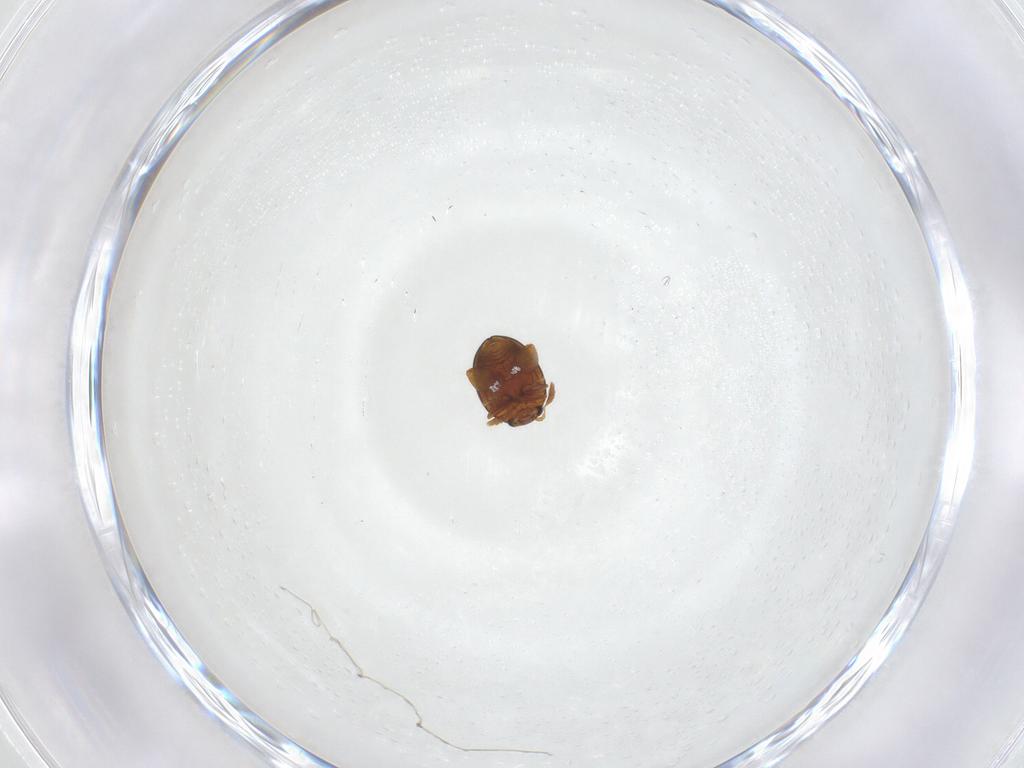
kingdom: Animalia
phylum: Arthropoda
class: Insecta
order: Coleoptera
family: Chrysomelidae
